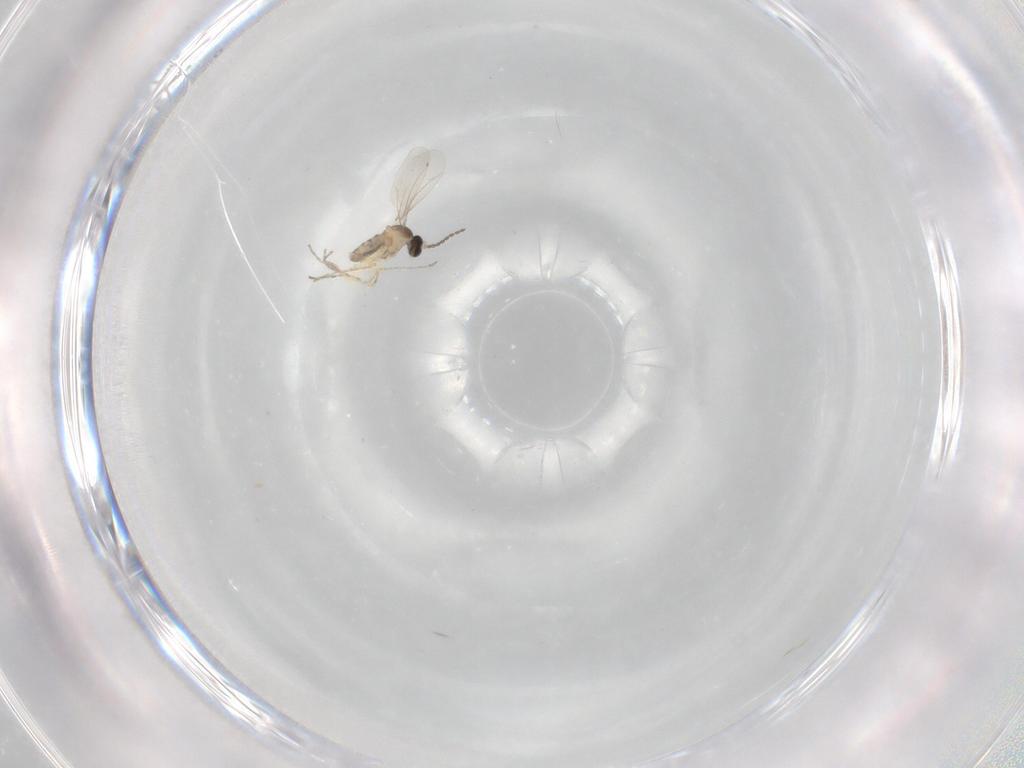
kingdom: Animalia
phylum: Arthropoda
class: Insecta
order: Diptera
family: Cecidomyiidae
